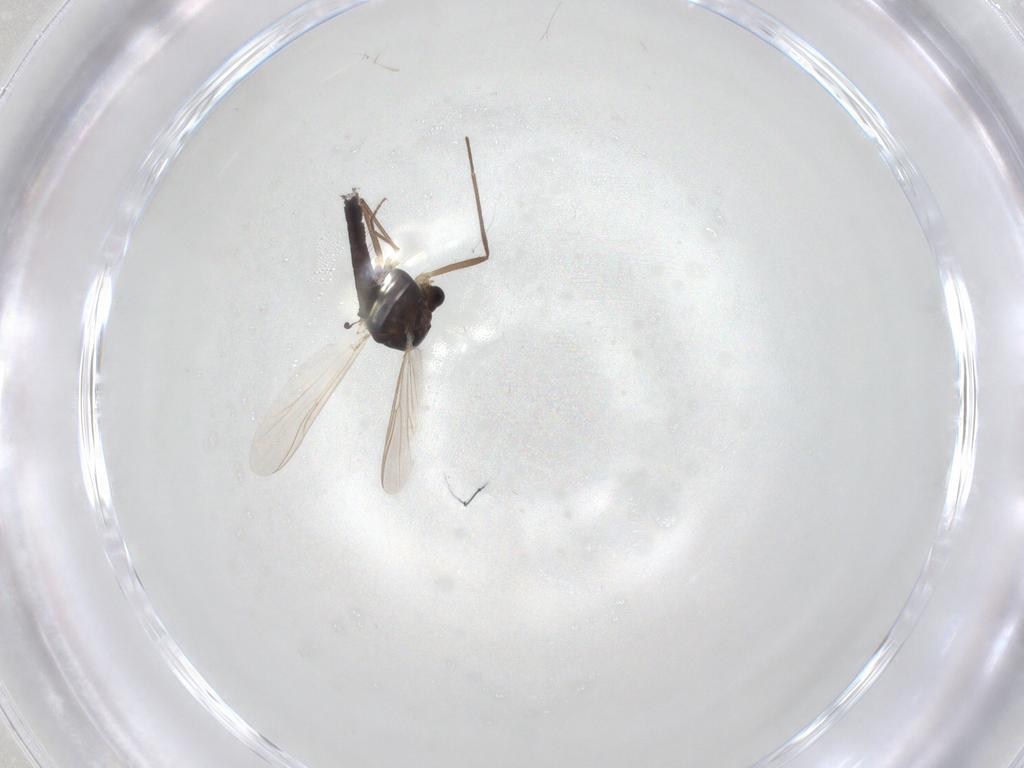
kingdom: Animalia
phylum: Arthropoda
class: Insecta
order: Diptera
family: Chironomidae
